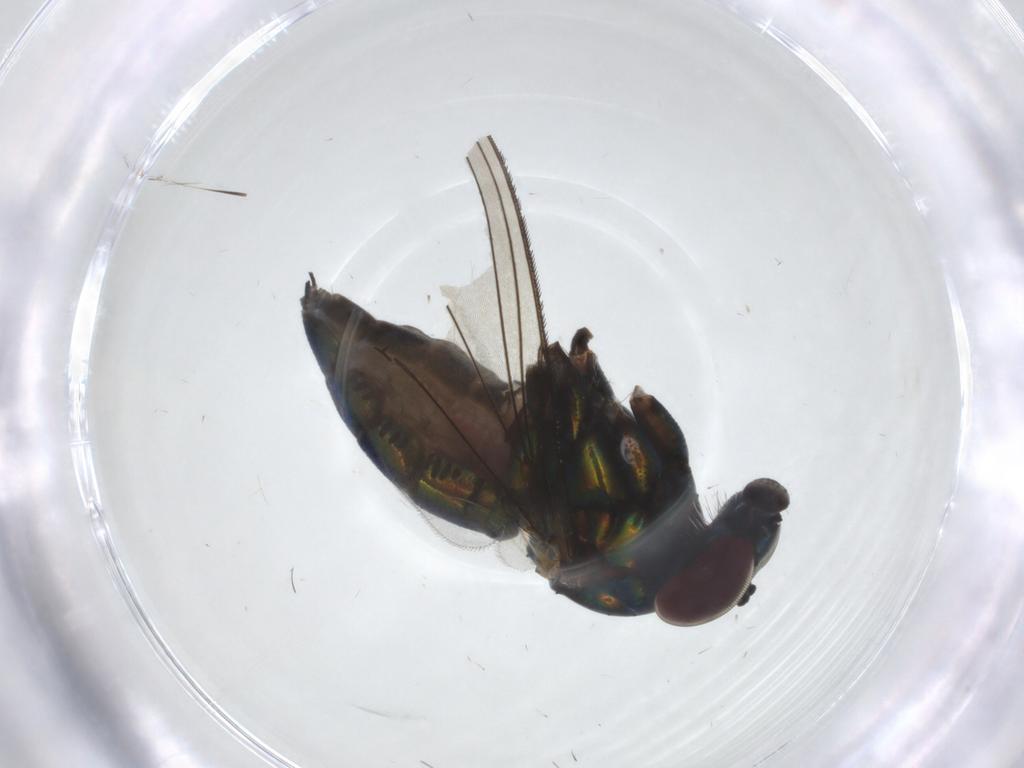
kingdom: Animalia
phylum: Arthropoda
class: Insecta
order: Diptera
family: Dolichopodidae
